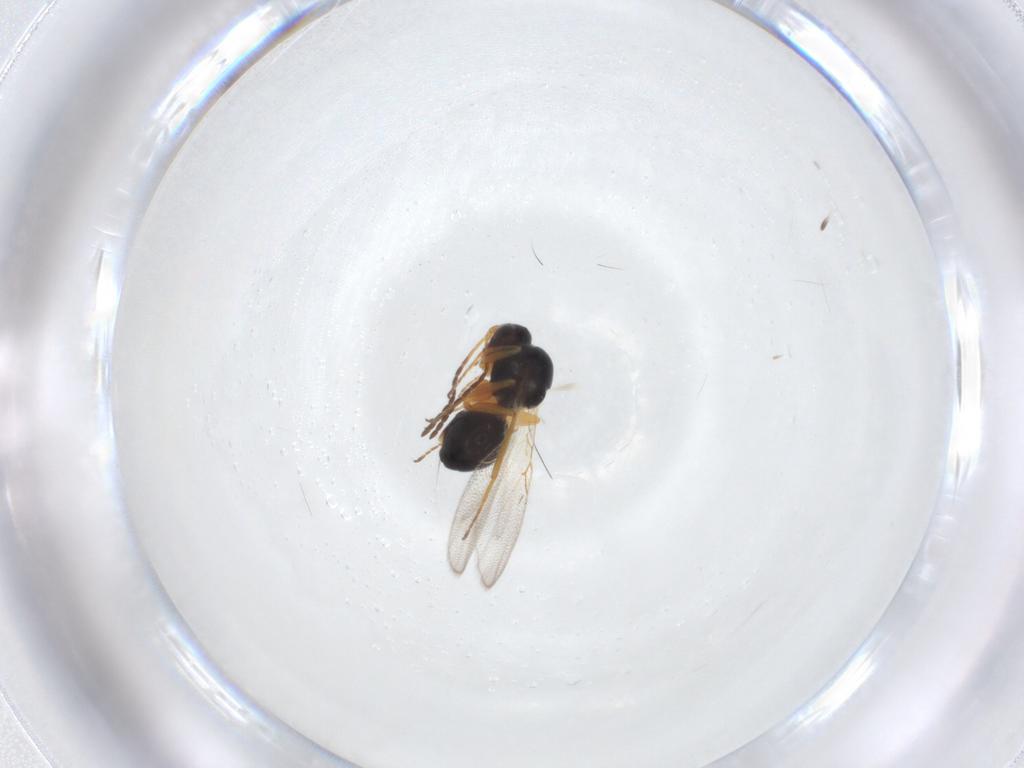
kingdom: Animalia
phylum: Arthropoda
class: Insecta
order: Hymenoptera
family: Figitidae
